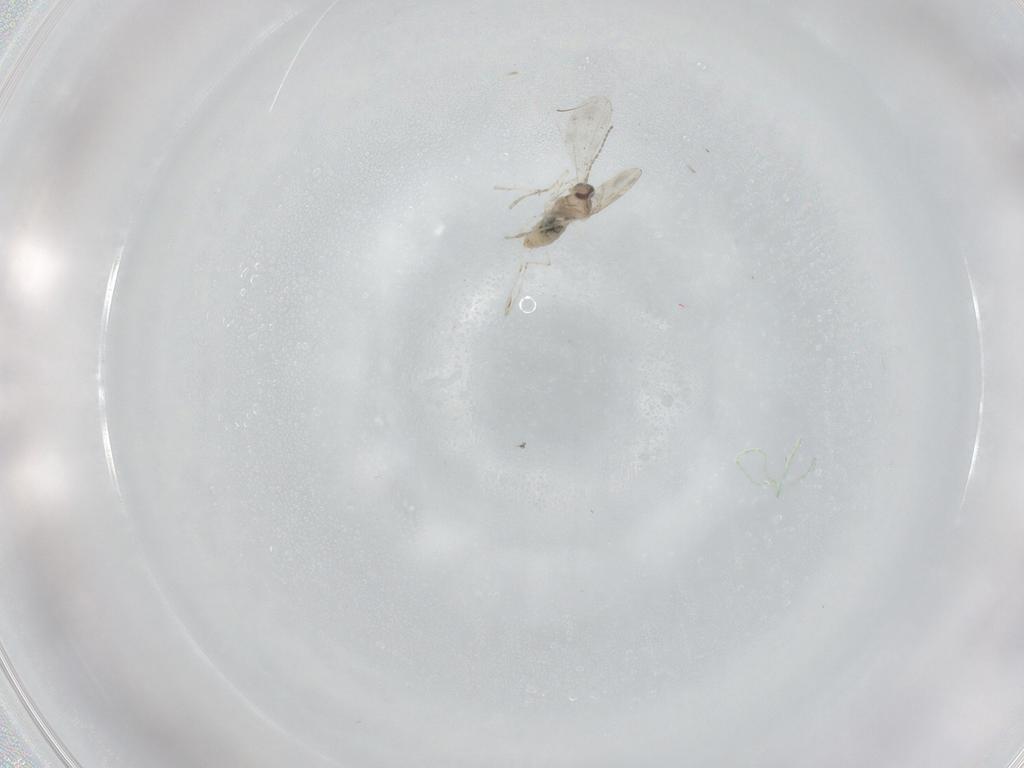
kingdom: Animalia
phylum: Arthropoda
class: Insecta
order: Diptera
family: Cecidomyiidae
